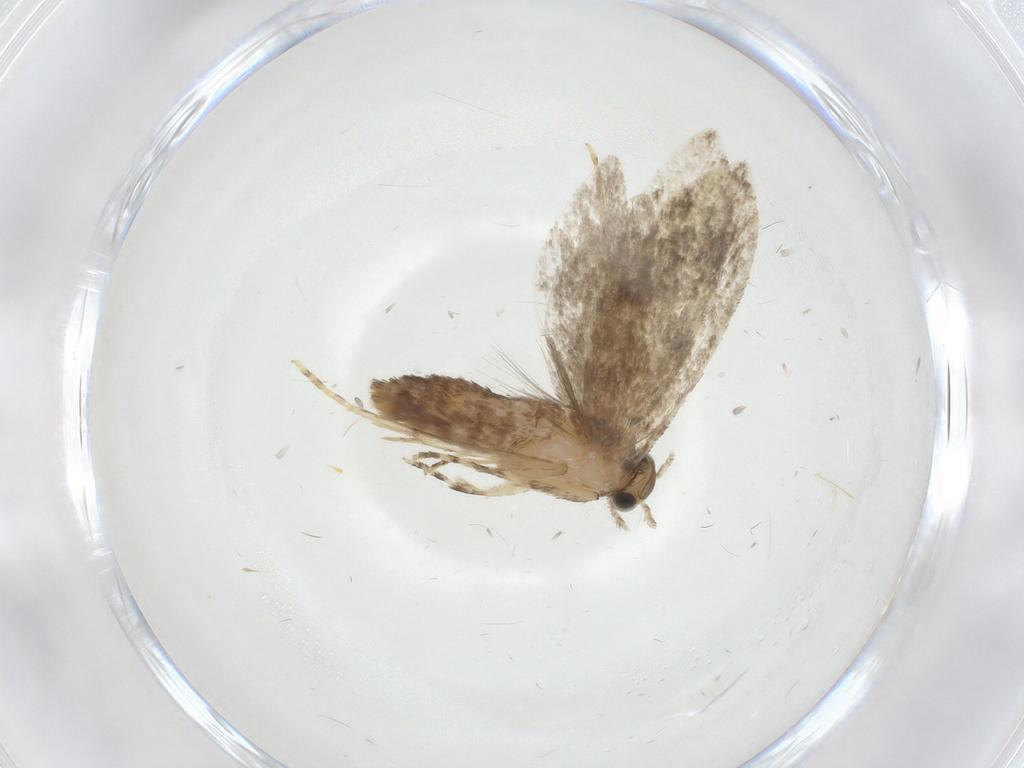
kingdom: Animalia
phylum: Arthropoda
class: Insecta
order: Lepidoptera
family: Tineidae
